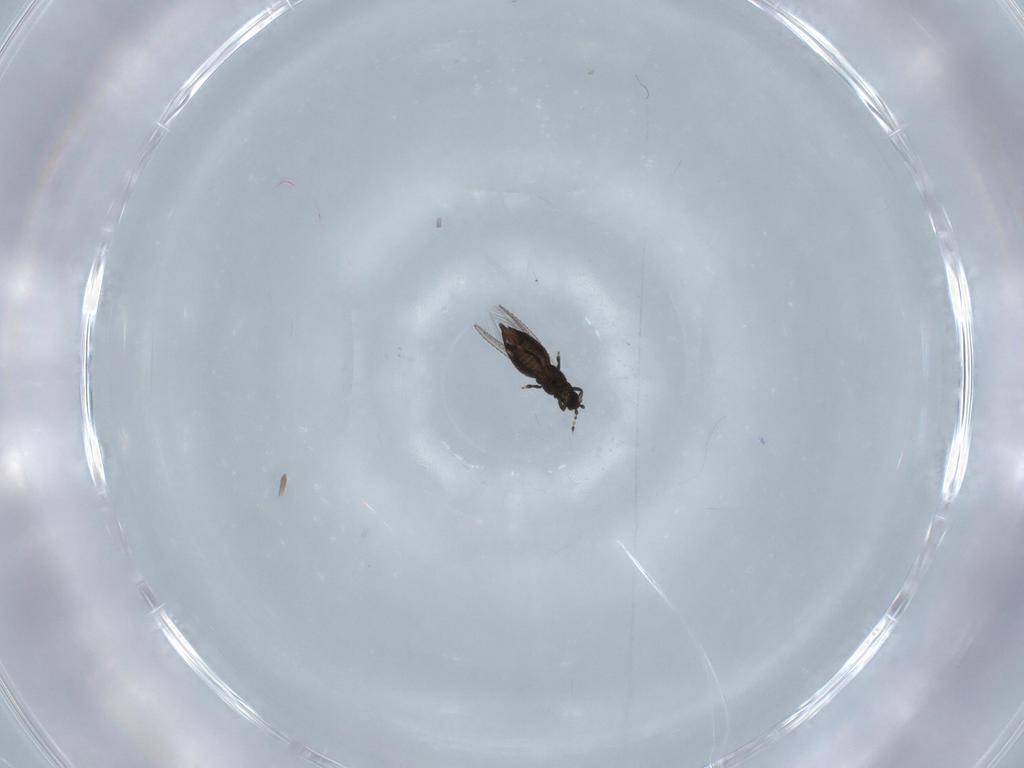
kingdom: Animalia
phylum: Arthropoda
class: Insecta
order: Thysanoptera
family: Thripidae
